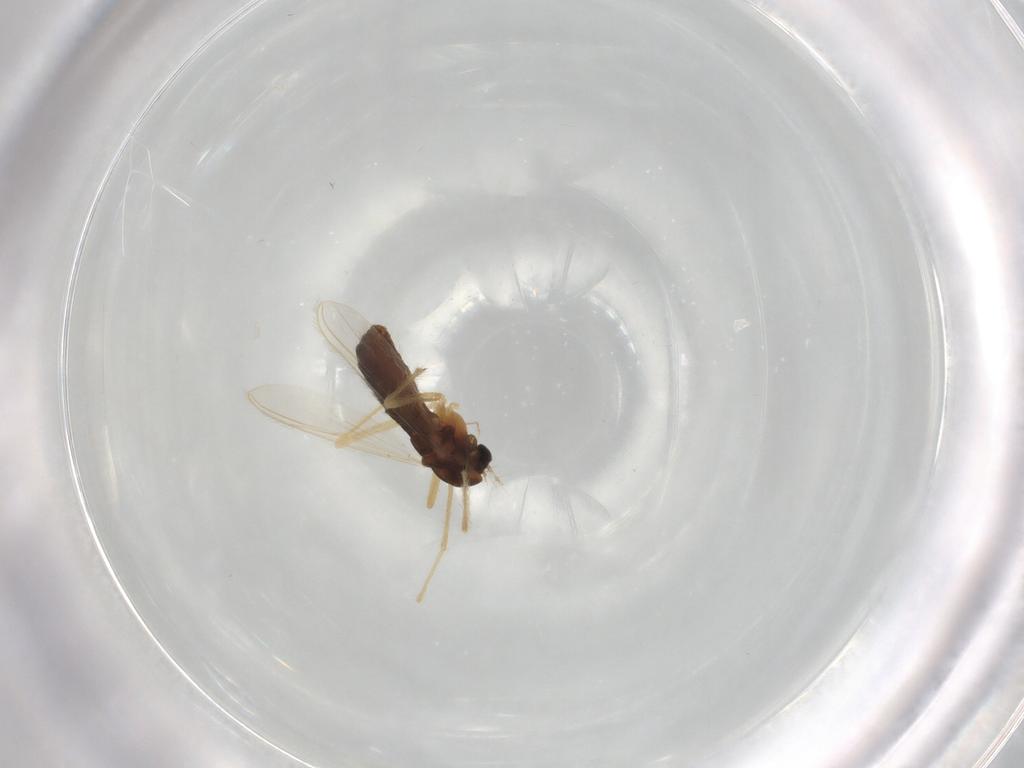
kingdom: Animalia
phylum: Arthropoda
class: Insecta
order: Diptera
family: Chironomidae
